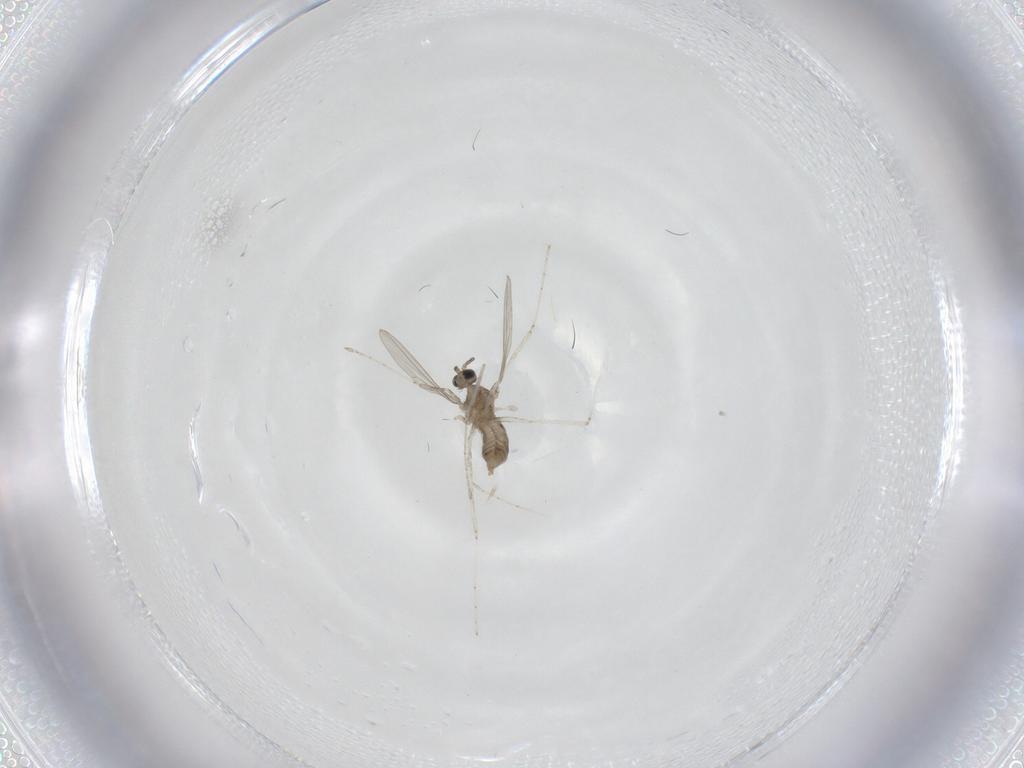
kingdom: Animalia
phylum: Arthropoda
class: Insecta
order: Diptera
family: Cecidomyiidae
